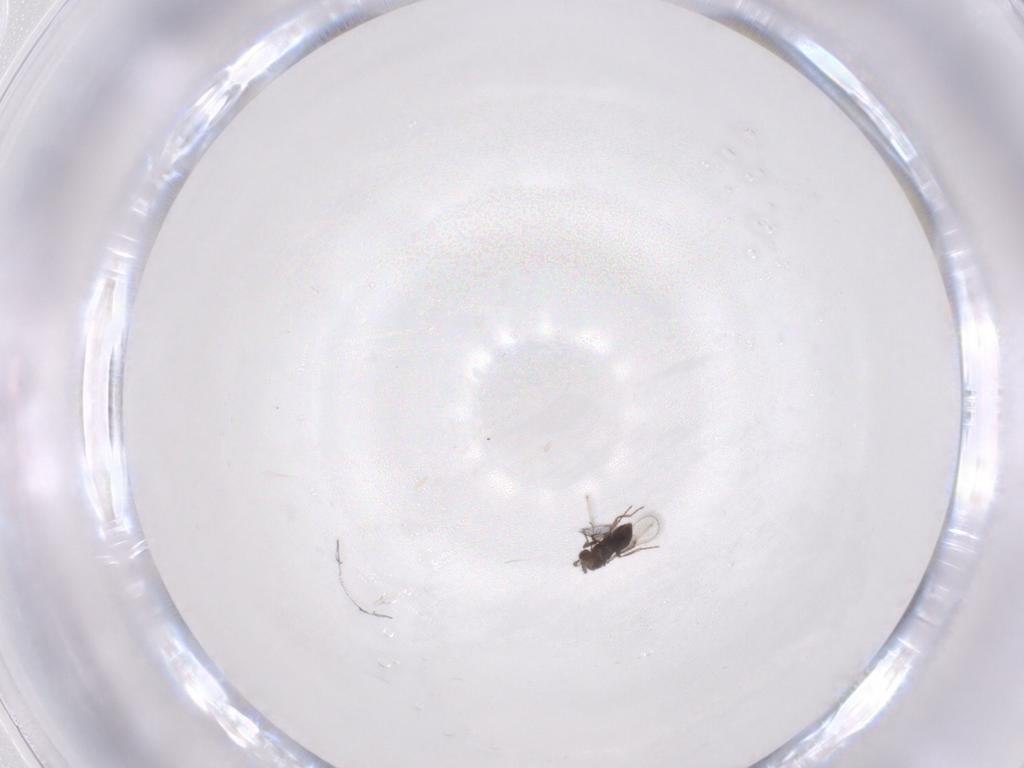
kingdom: Animalia
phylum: Arthropoda
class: Insecta
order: Hymenoptera
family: Trichogrammatidae
